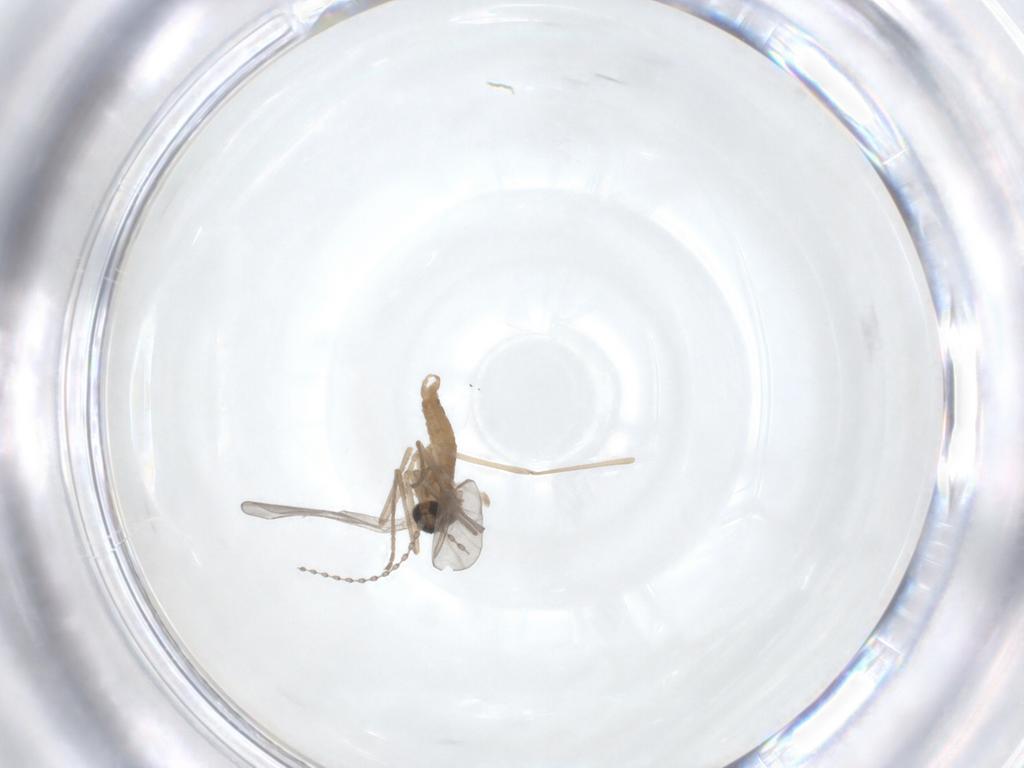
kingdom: Animalia
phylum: Arthropoda
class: Insecta
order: Diptera
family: Cecidomyiidae
